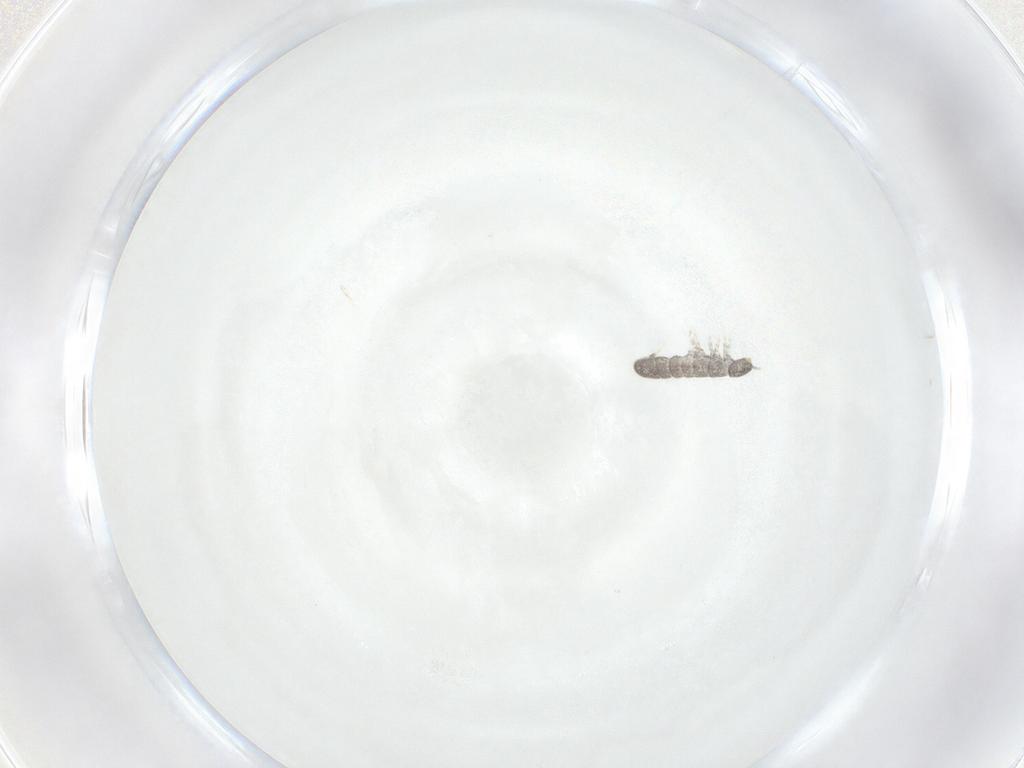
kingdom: Animalia
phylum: Arthropoda
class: Collembola
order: Entomobryomorpha
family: Isotomidae
